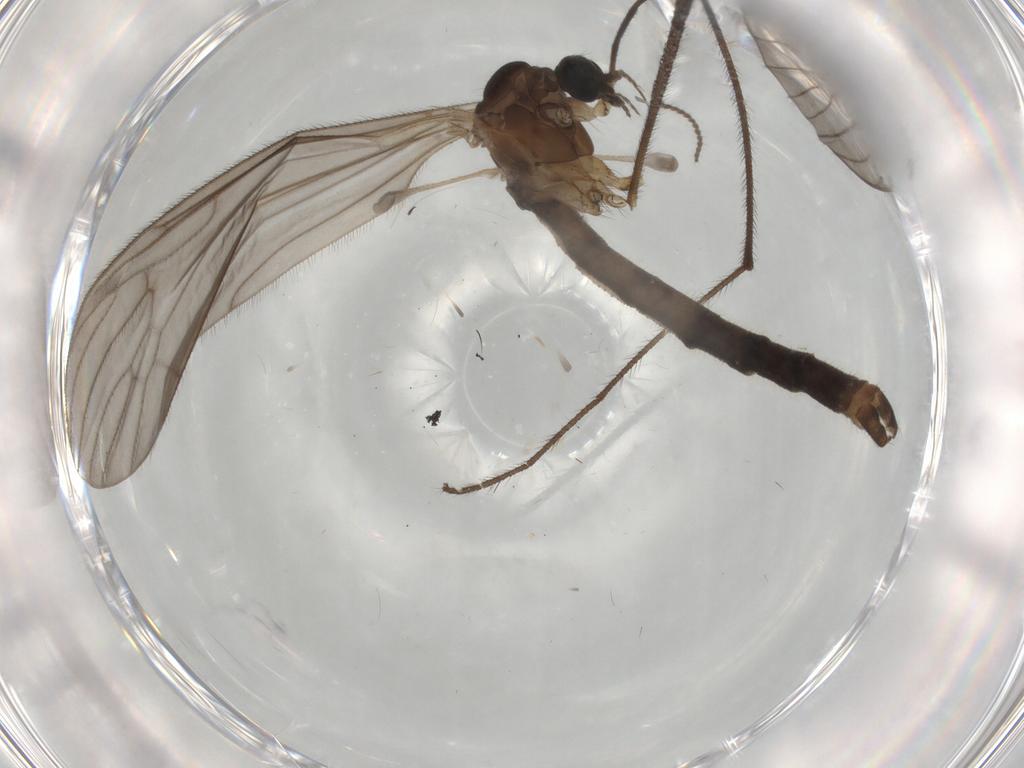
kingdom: Animalia
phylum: Arthropoda
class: Insecta
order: Diptera
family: Limoniidae
